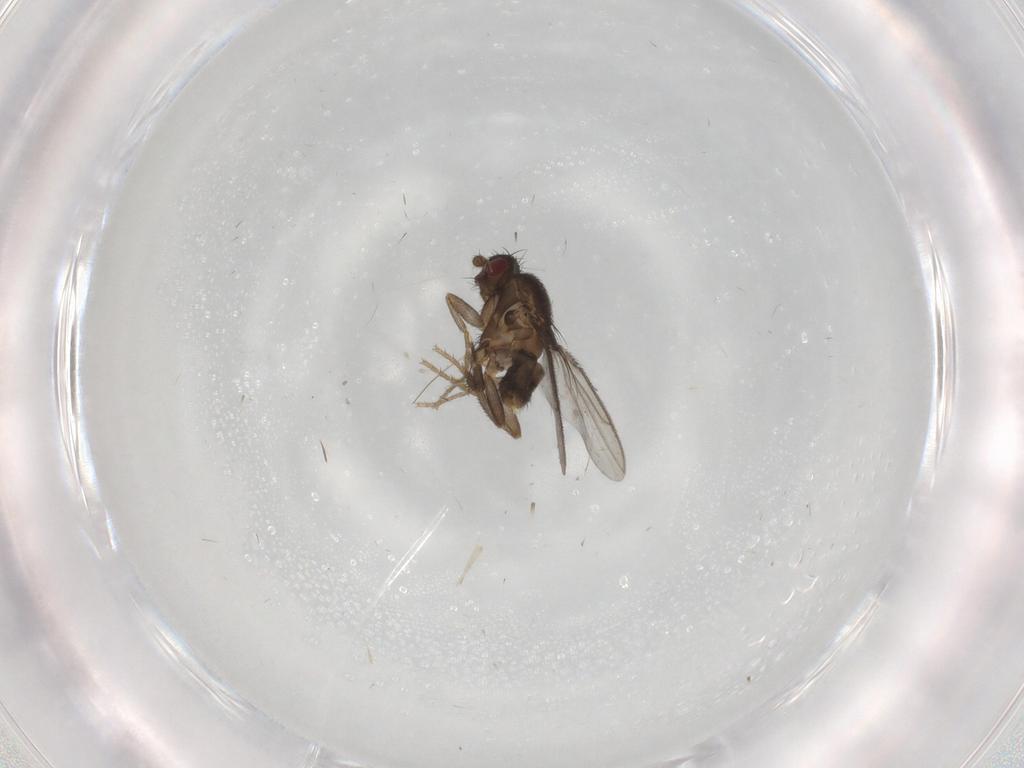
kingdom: Animalia
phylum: Arthropoda
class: Insecta
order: Diptera
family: Sphaeroceridae
